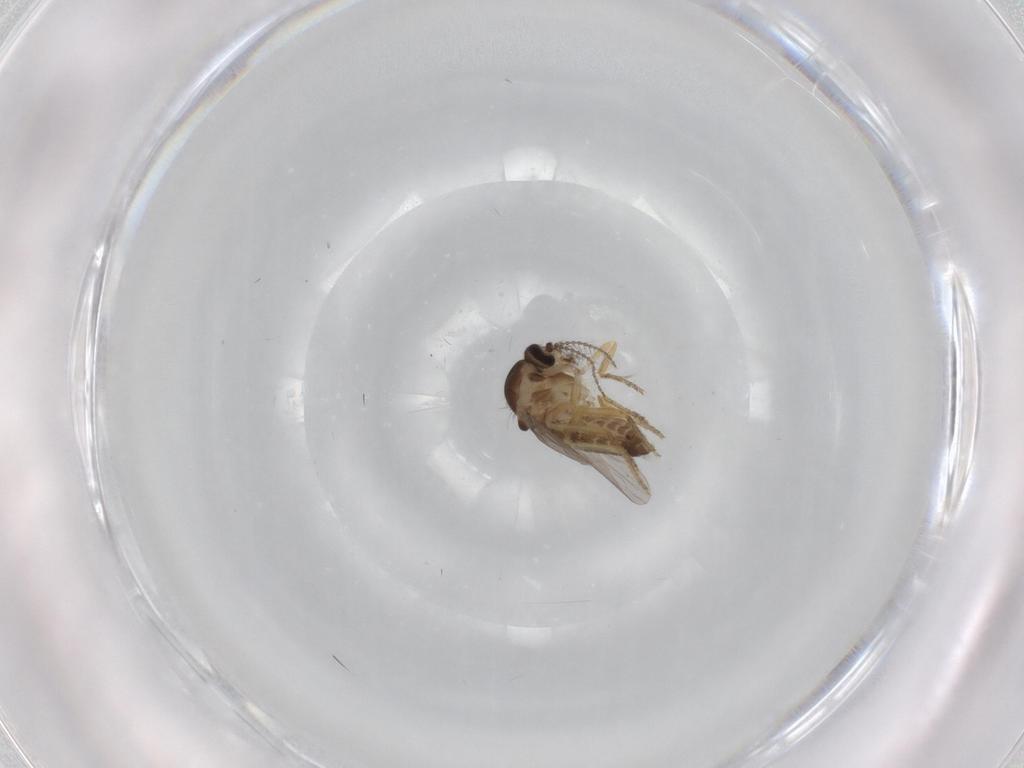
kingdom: Animalia
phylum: Arthropoda
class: Insecta
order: Diptera
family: Ceratopogonidae
